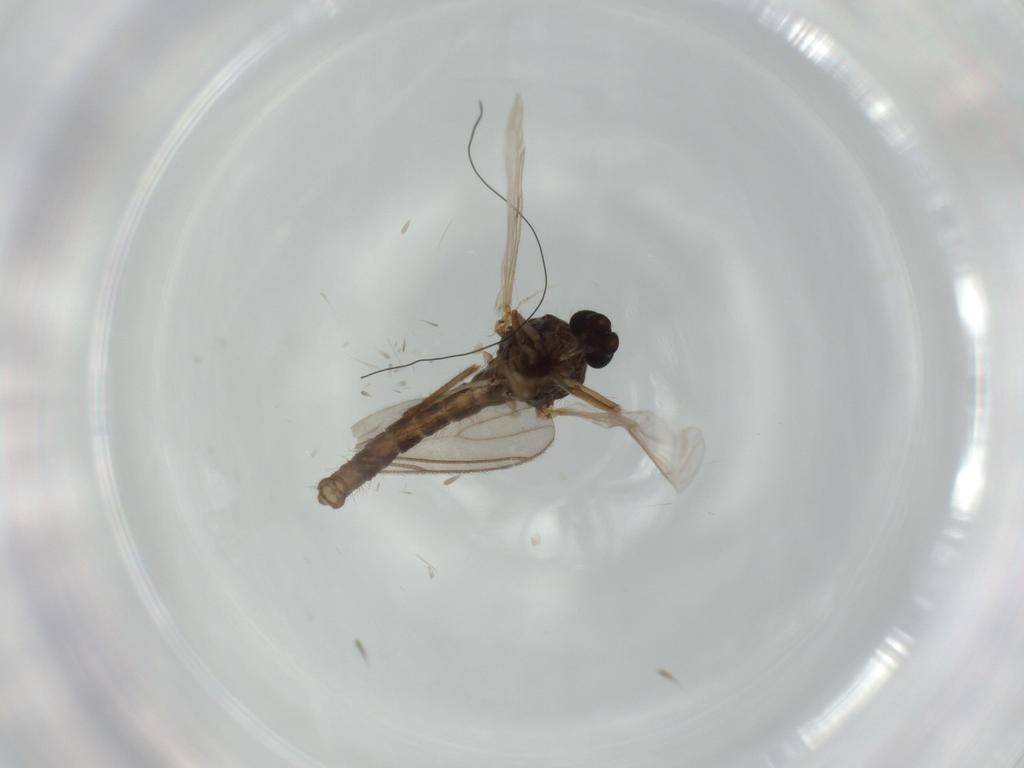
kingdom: Animalia
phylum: Arthropoda
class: Insecta
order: Diptera
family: Ceratopogonidae
